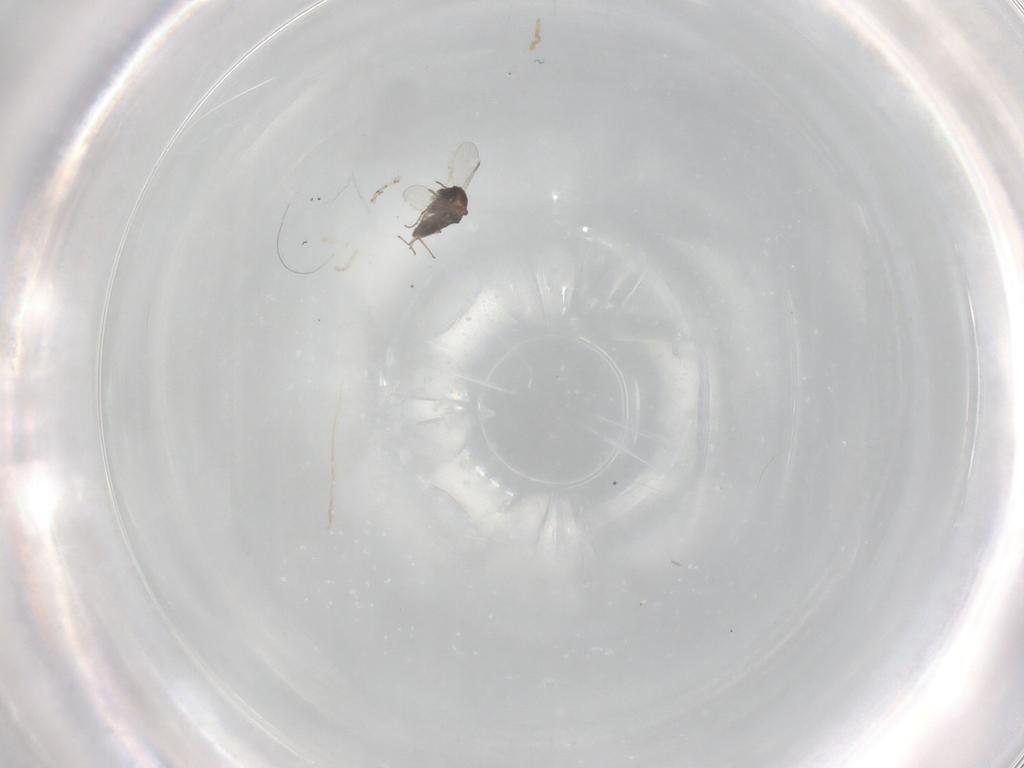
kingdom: Animalia
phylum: Arthropoda
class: Insecta
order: Diptera
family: Chironomidae
